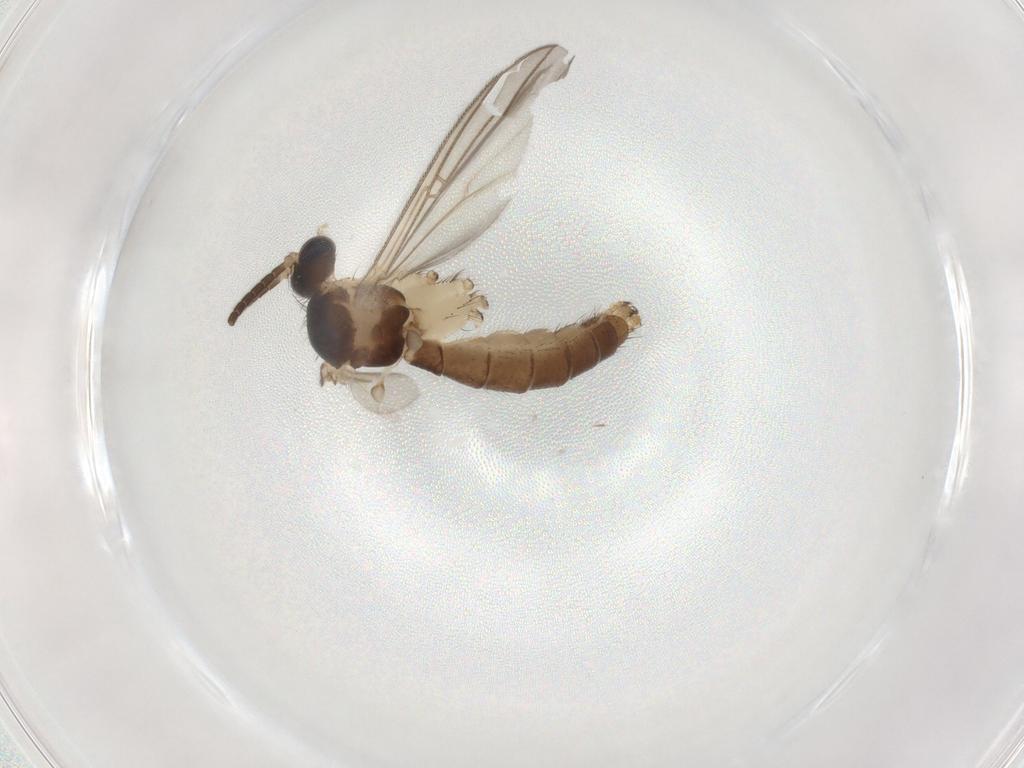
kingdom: Animalia
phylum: Arthropoda
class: Insecta
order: Diptera
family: Mycetophilidae
